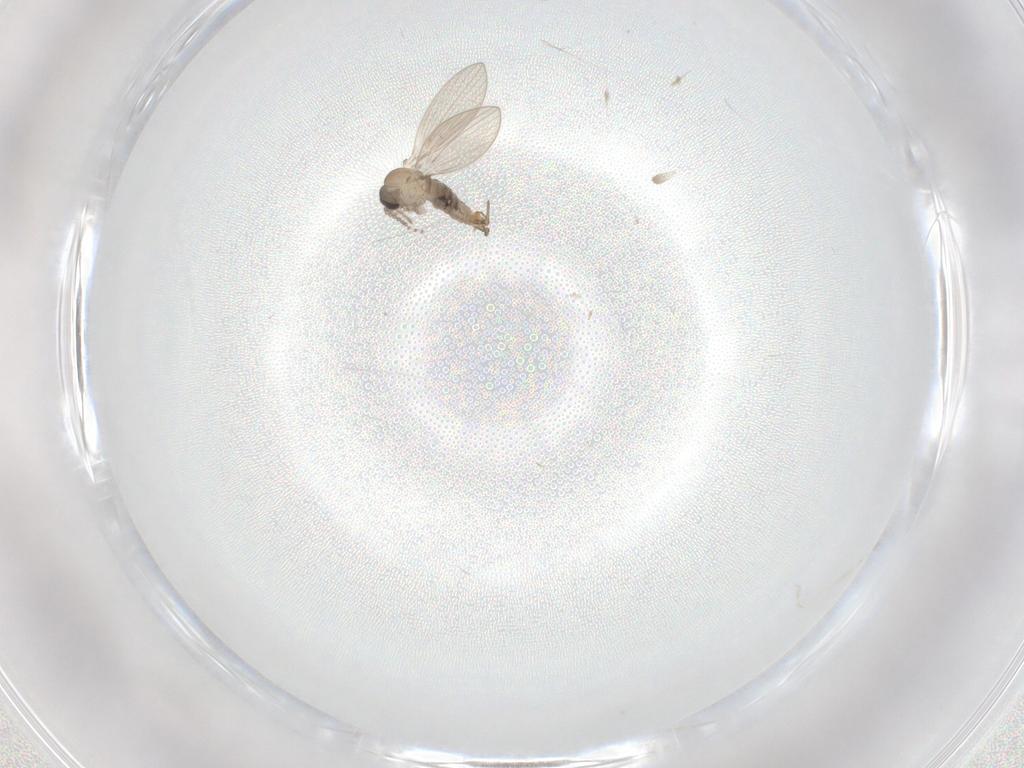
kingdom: Animalia
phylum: Arthropoda
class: Insecta
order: Diptera
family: Psychodidae
